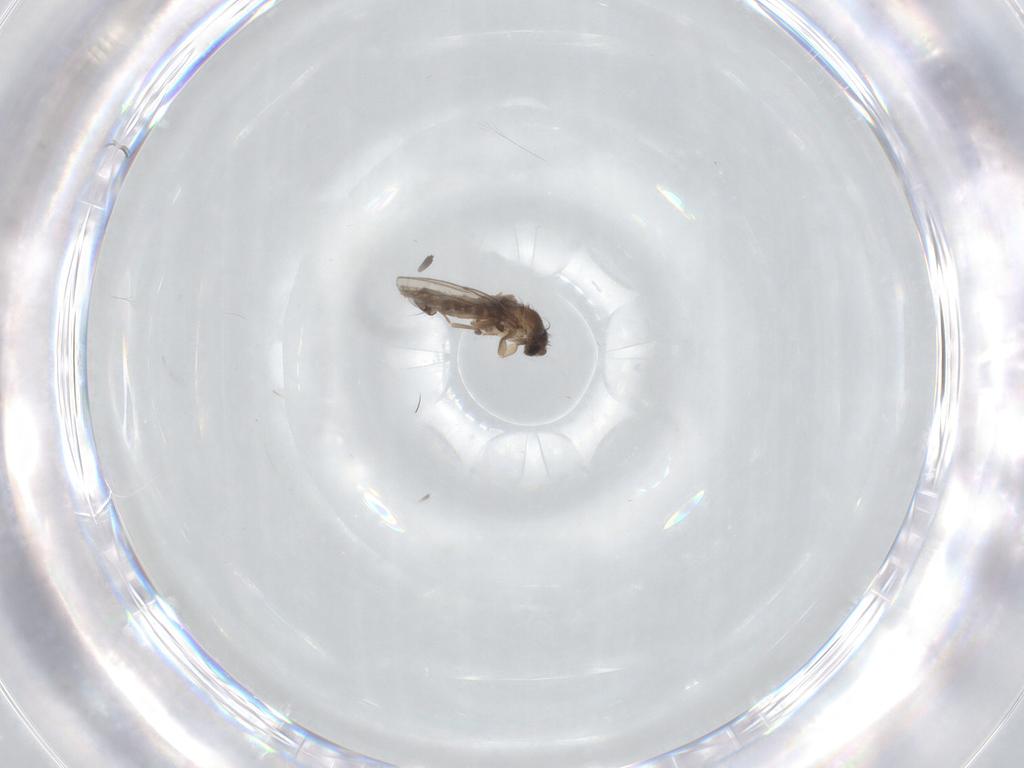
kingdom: Animalia
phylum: Arthropoda
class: Insecta
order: Diptera
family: Phoridae
